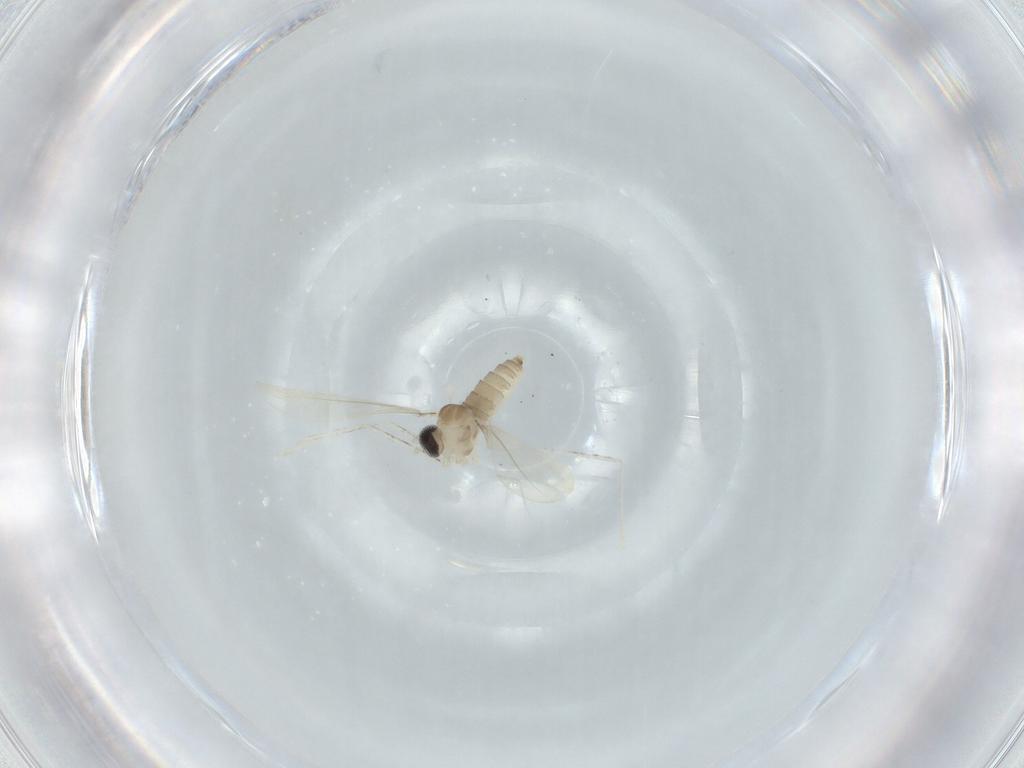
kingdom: Animalia
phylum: Arthropoda
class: Insecta
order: Diptera
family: Cecidomyiidae
